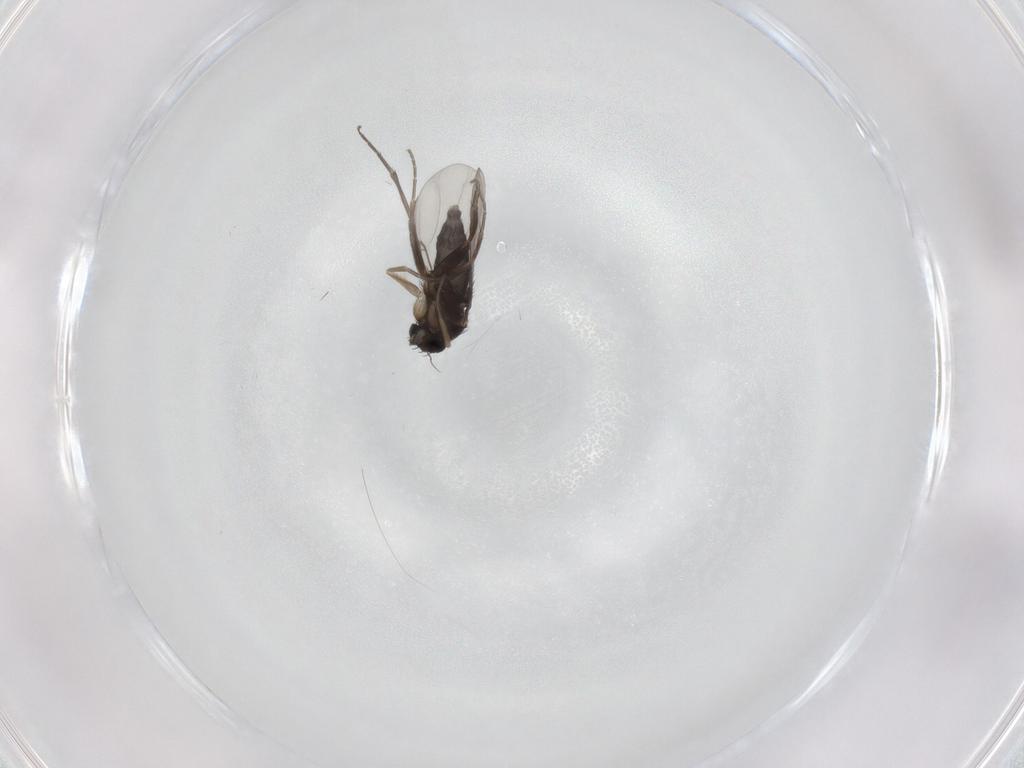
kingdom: Animalia
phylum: Arthropoda
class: Insecta
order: Diptera
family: Phoridae
